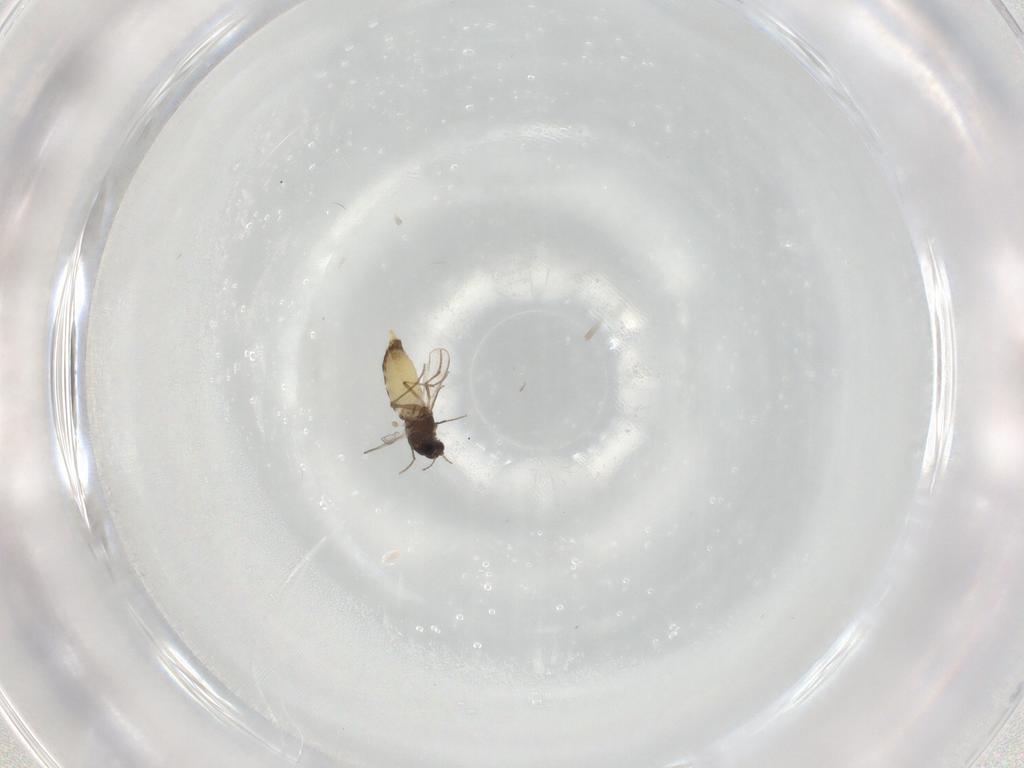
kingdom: Animalia
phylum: Arthropoda
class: Insecta
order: Diptera
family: Chironomidae
